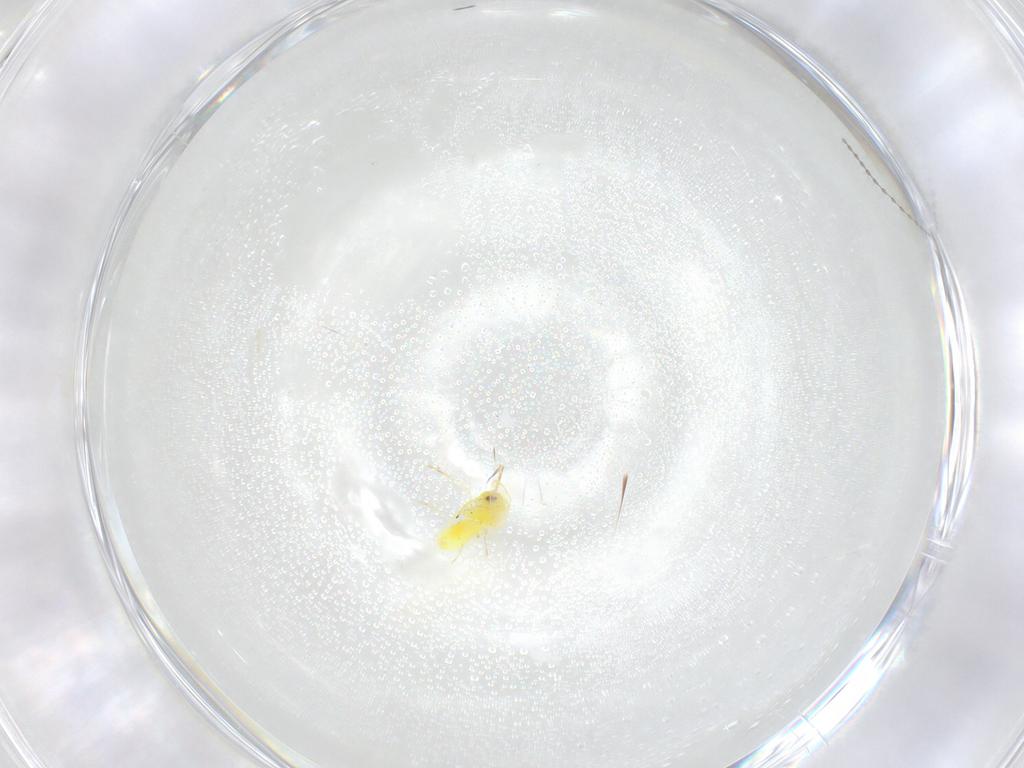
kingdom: Animalia
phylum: Arthropoda
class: Insecta
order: Hemiptera
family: Aleyrodidae
